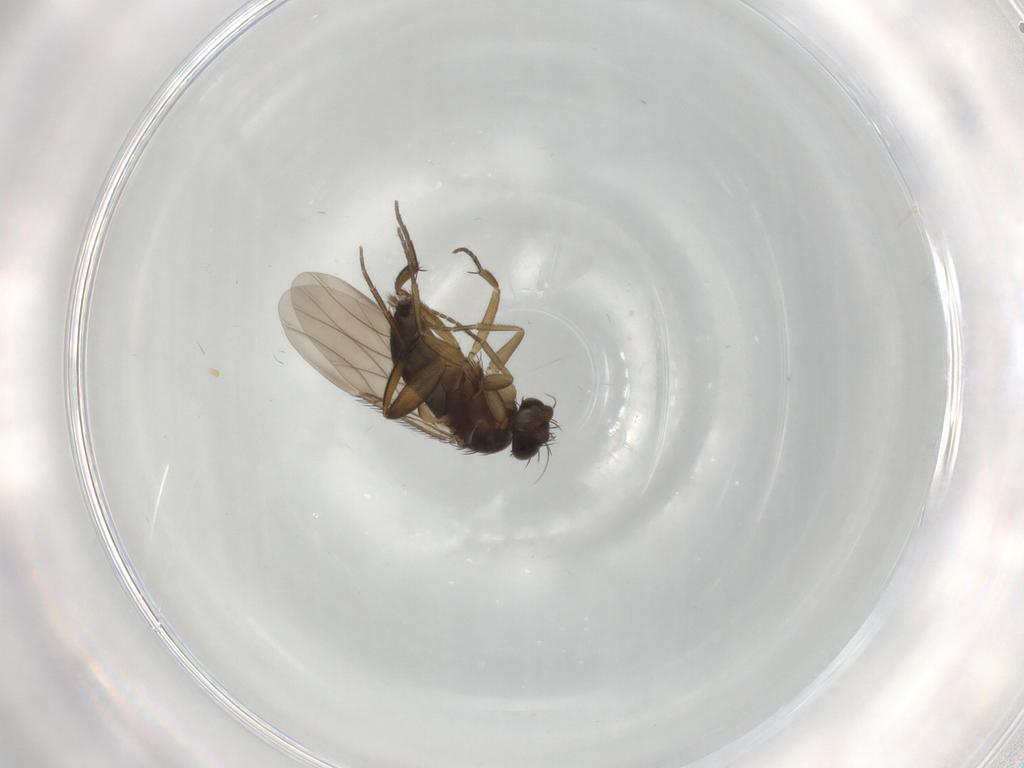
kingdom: Animalia
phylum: Arthropoda
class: Insecta
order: Diptera
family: Phoridae
